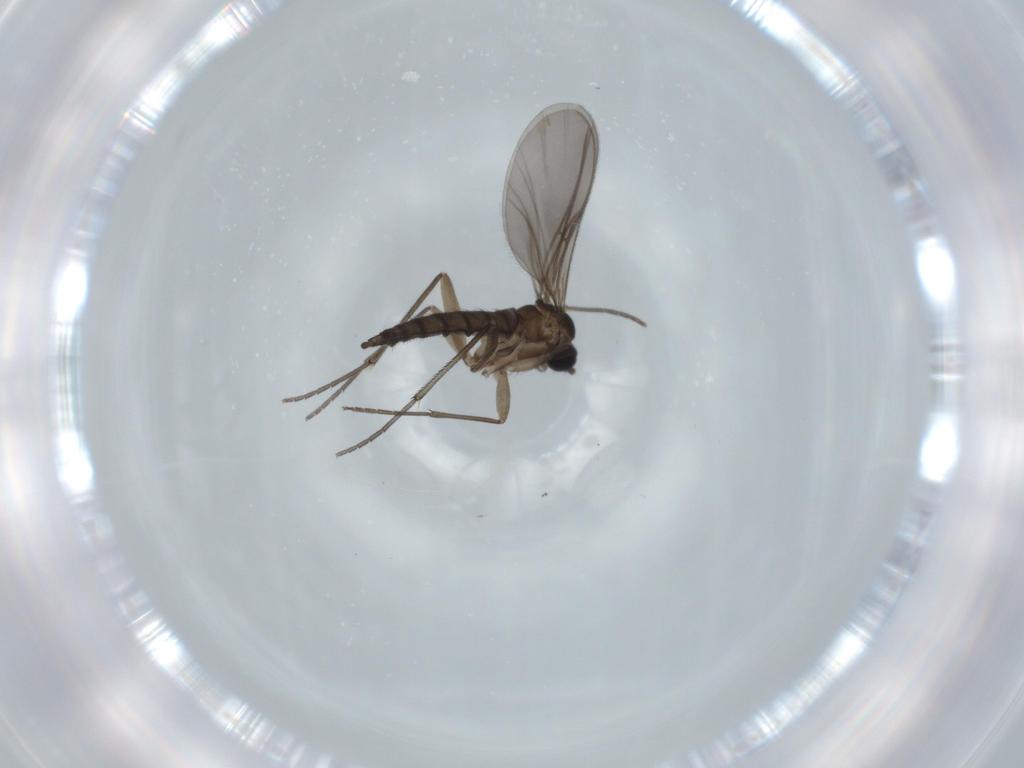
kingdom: Animalia
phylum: Arthropoda
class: Insecta
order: Diptera
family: Sciaridae
